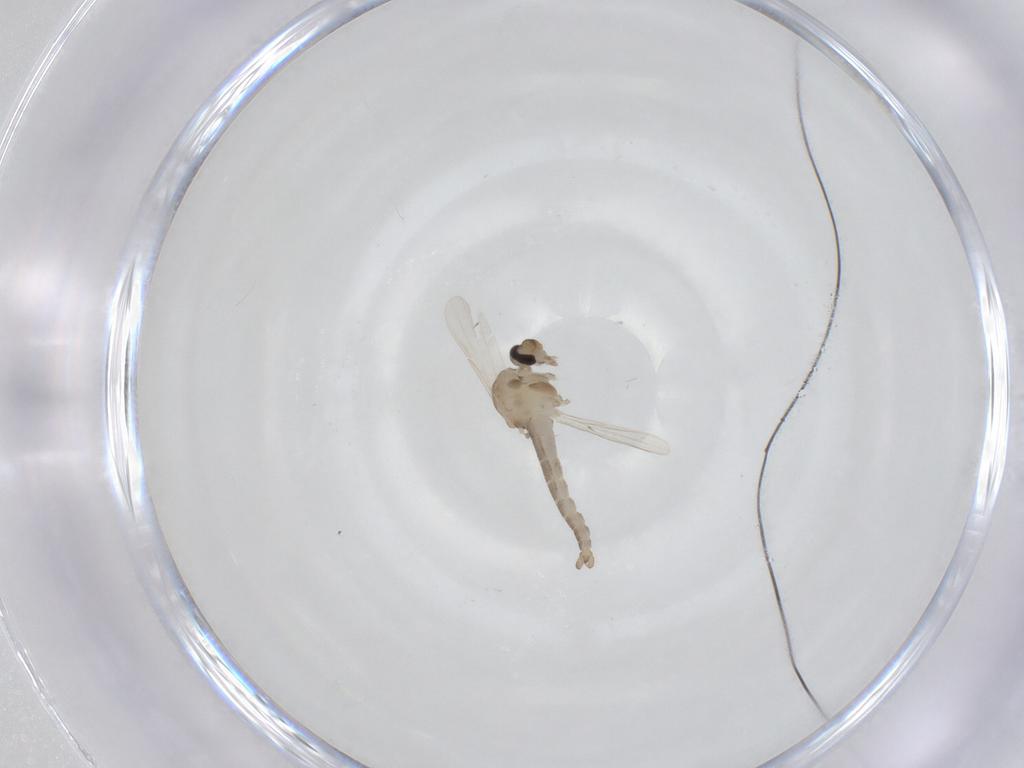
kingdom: Animalia
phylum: Arthropoda
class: Insecta
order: Diptera
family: Ceratopogonidae
